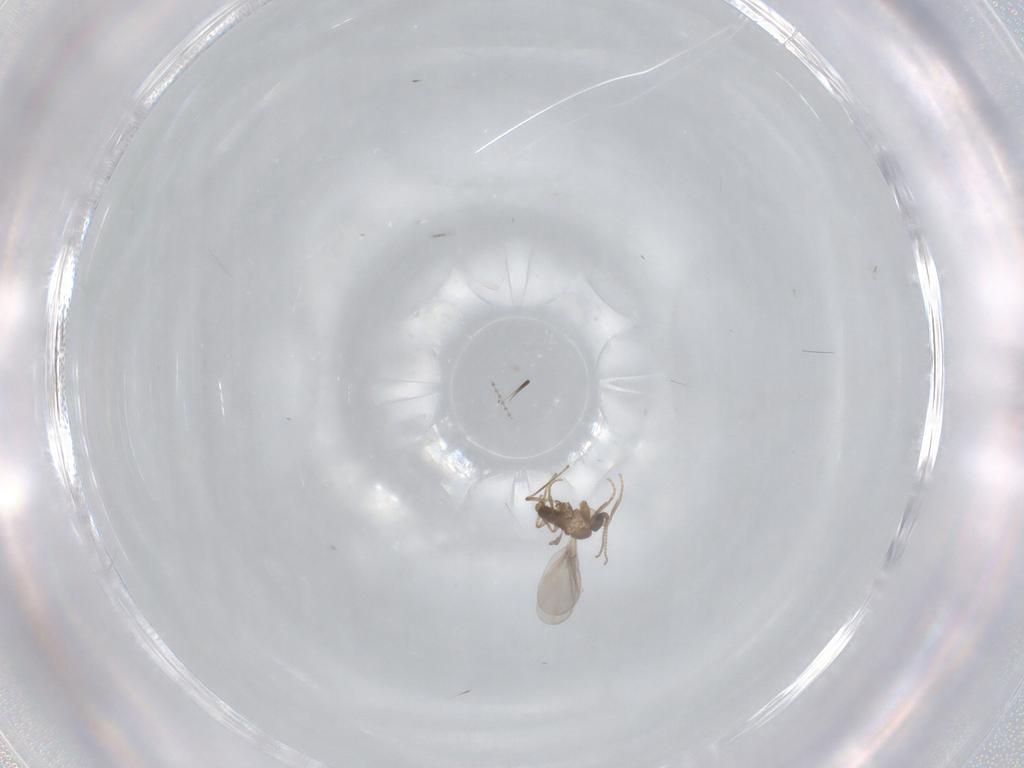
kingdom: Animalia
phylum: Arthropoda
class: Insecta
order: Diptera
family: Sciaridae
